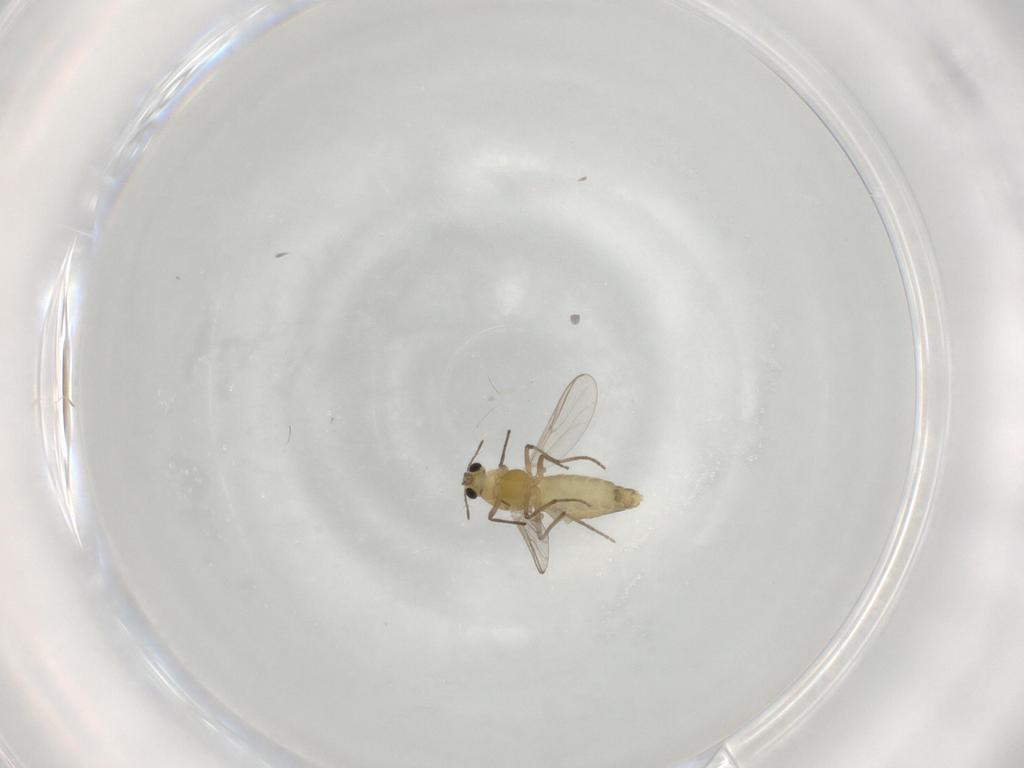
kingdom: Animalia
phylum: Arthropoda
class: Insecta
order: Diptera
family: Chironomidae
